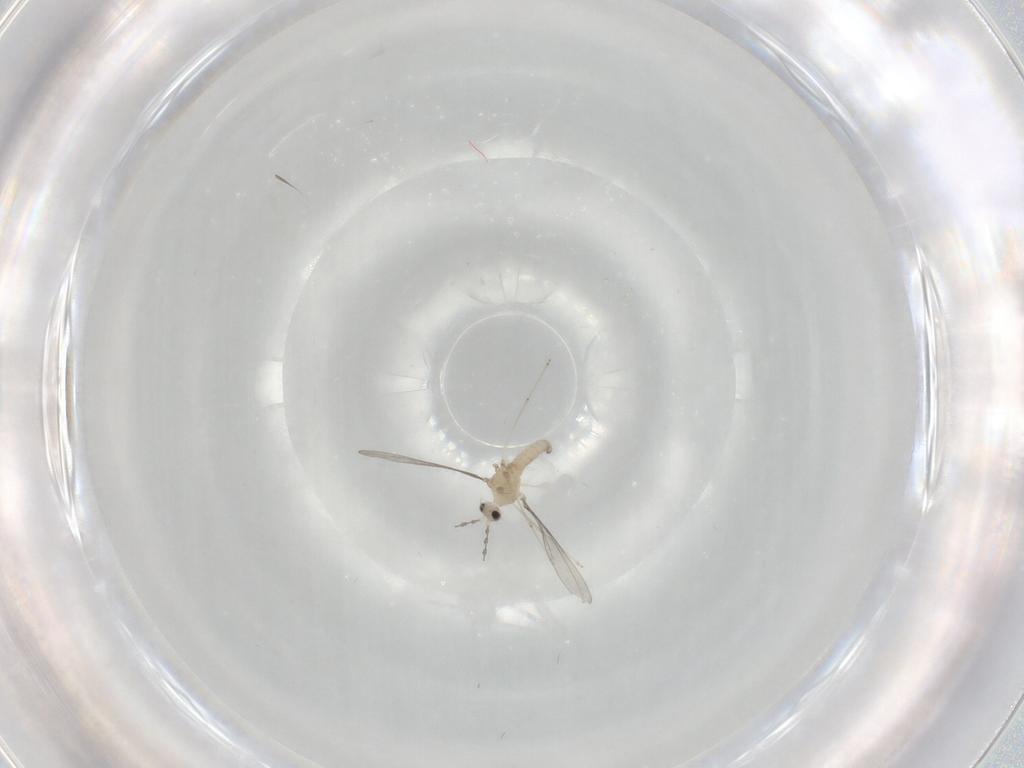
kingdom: Animalia
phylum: Arthropoda
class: Insecta
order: Diptera
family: Cecidomyiidae
